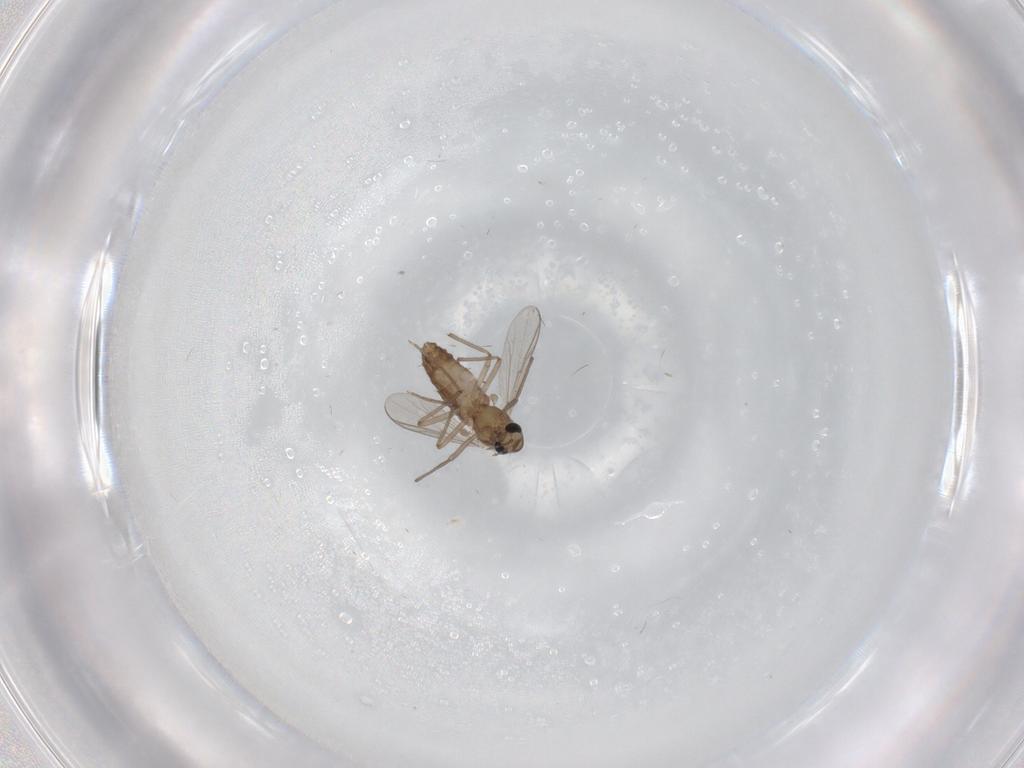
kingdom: Animalia
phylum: Arthropoda
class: Insecta
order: Diptera
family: Chironomidae
